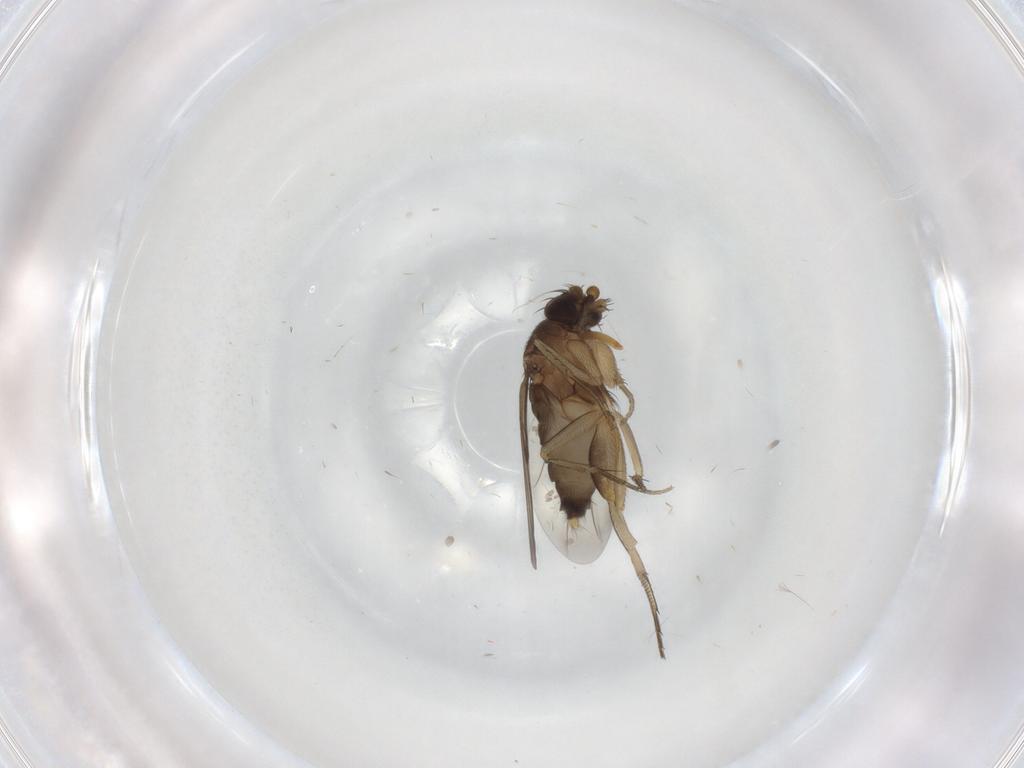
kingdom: Animalia
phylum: Arthropoda
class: Insecta
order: Diptera
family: Phoridae
